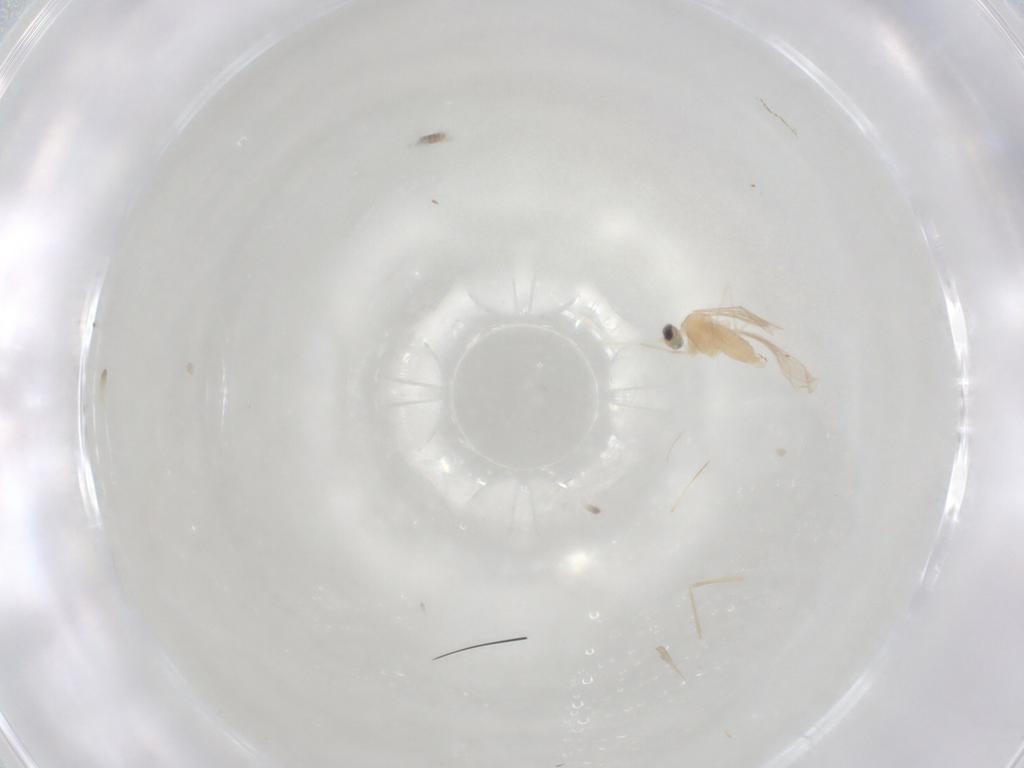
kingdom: Animalia
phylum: Arthropoda
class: Insecta
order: Diptera
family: Cecidomyiidae
